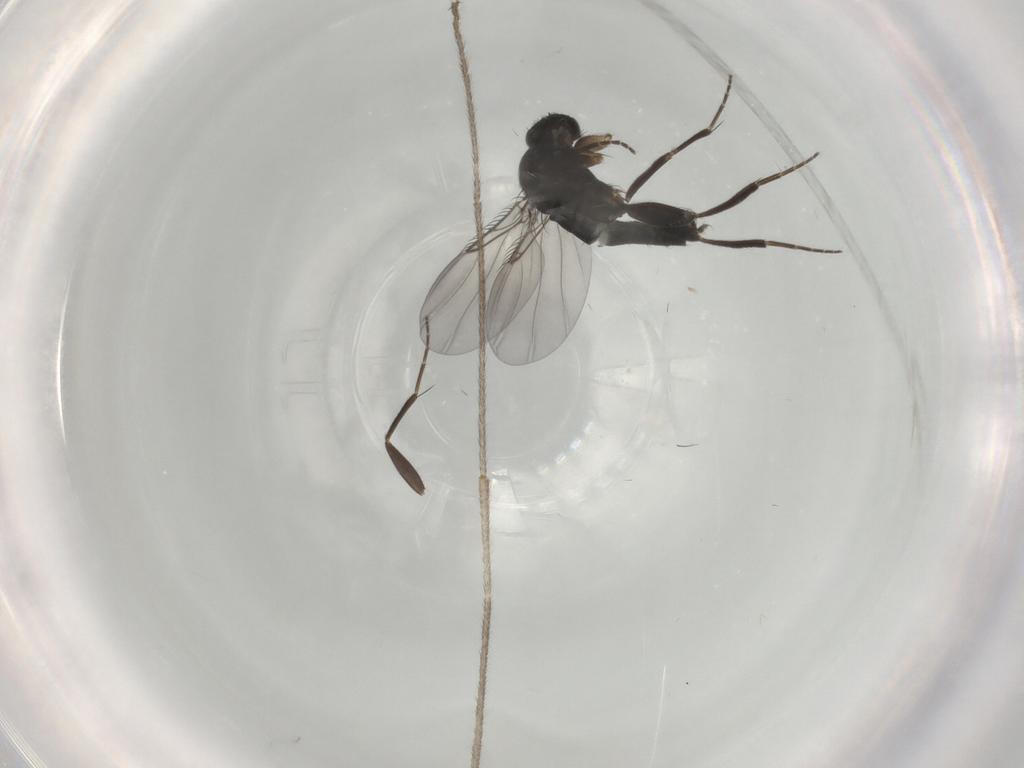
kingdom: Animalia
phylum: Arthropoda
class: Insecta
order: Diptera
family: Phoridae
